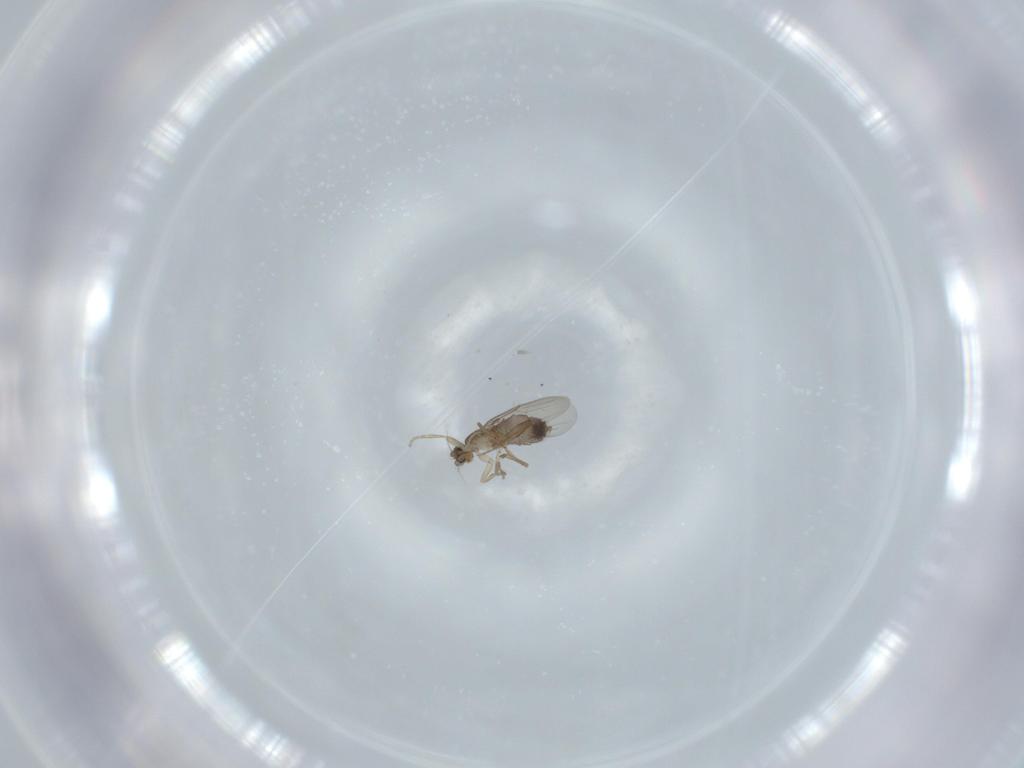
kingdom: Animalia
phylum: Arthropoda
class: Insecta
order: Diptera
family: Phoridae
